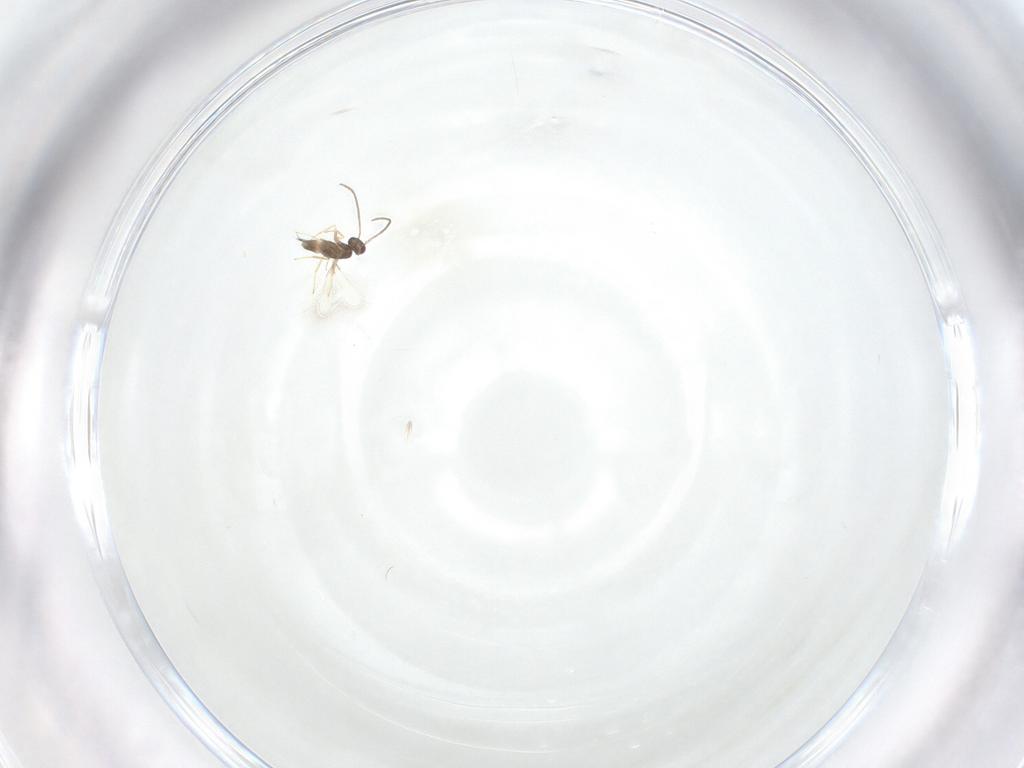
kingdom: Animalia
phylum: Arthropoda
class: Insecta
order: Hymenoptera
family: Mymaridae
